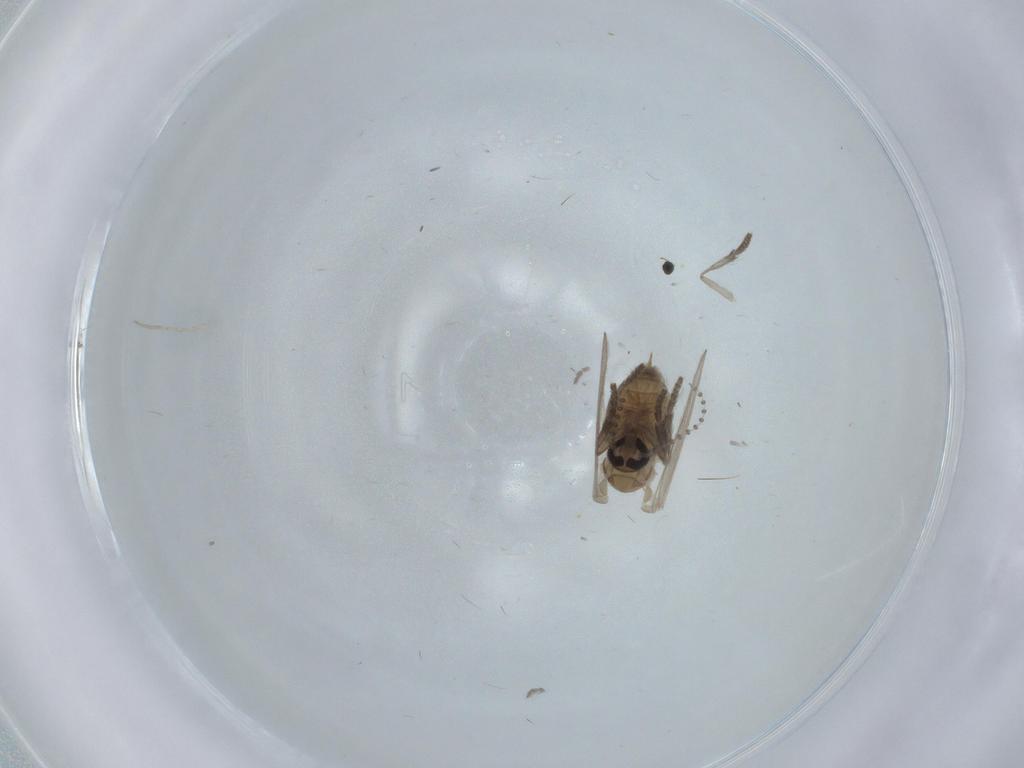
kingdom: Animalia
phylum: Arthropoda
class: Insecta
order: Diptera
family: Psychodidae
